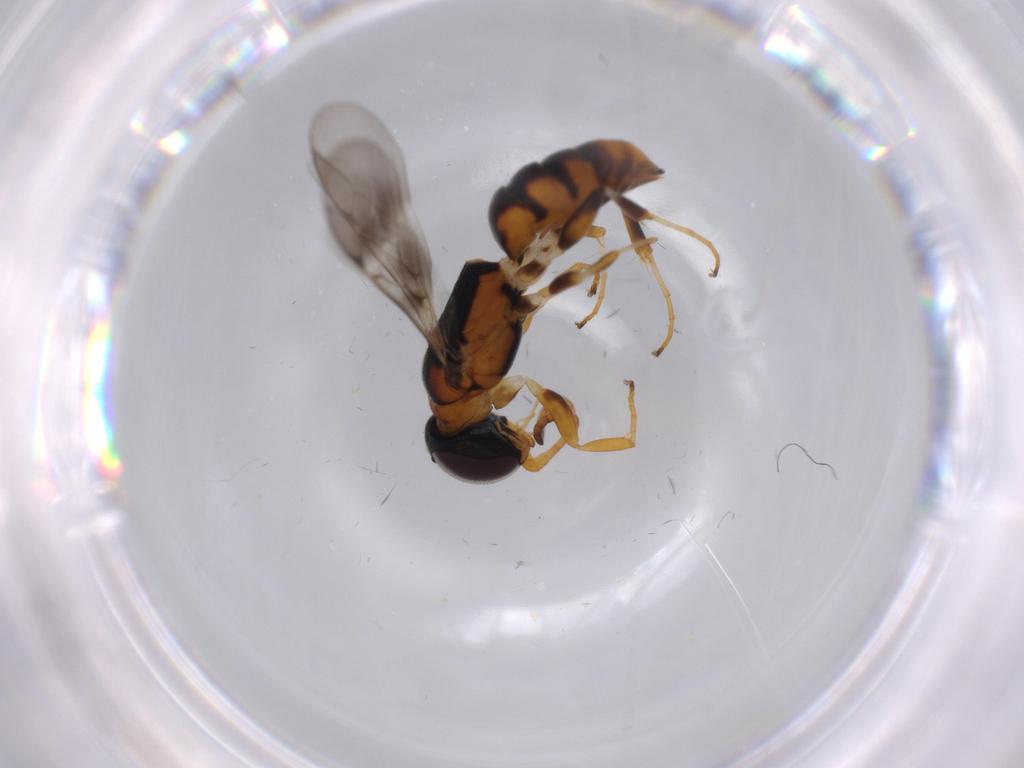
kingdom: Animalia
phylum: Arthropoda
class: Insecta
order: Hymenoptera
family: Bethylidae
